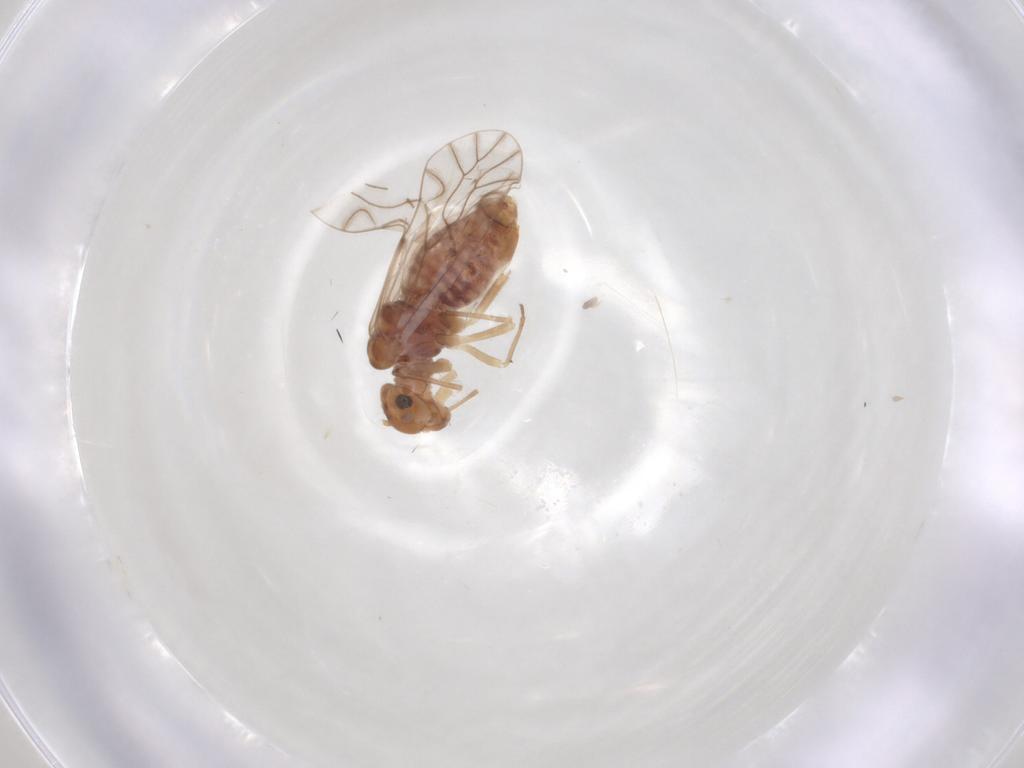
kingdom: Animalia
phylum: Arthropoda
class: Insecta
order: Psocodea
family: Lachesillidae
